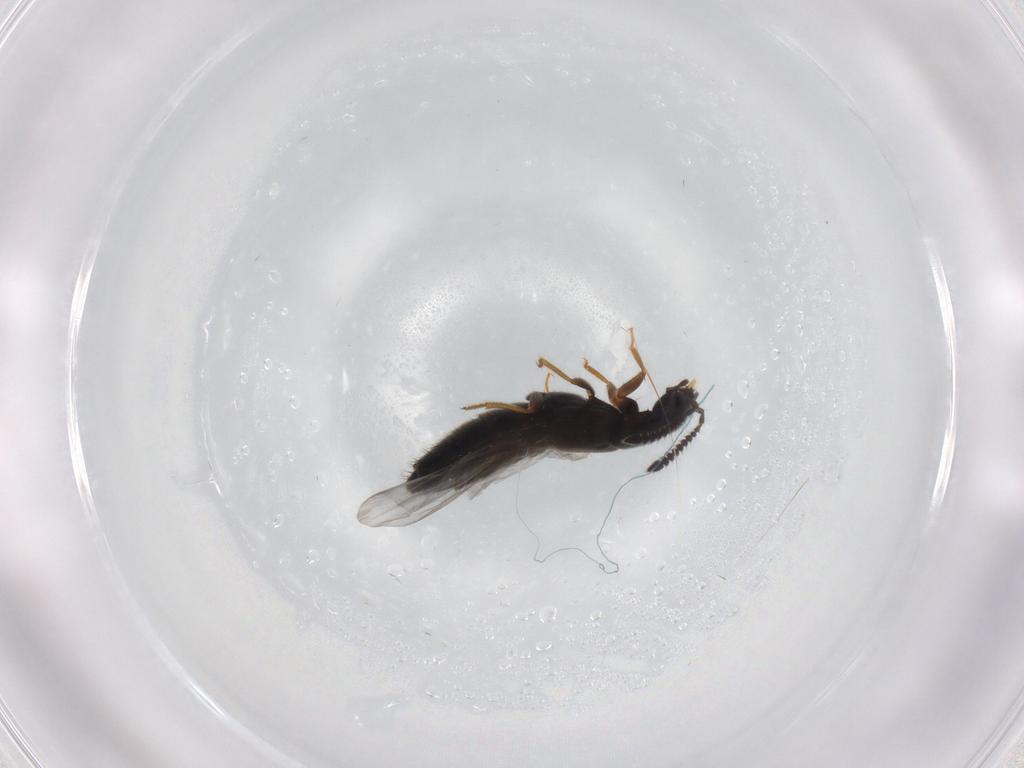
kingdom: Animalia
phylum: Arthropoda
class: Insecta
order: Coleoptera
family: Staphylinidae
